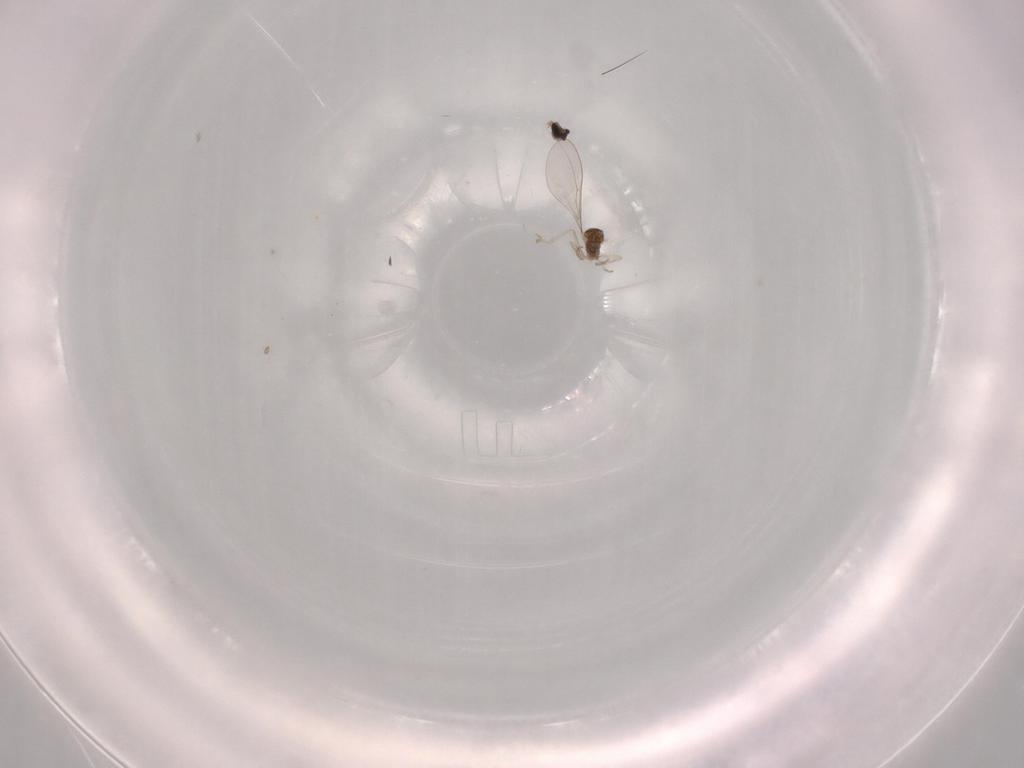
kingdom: Animalia
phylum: Arthropoda
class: Insecta
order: Diptera
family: Cecidomyiidae
